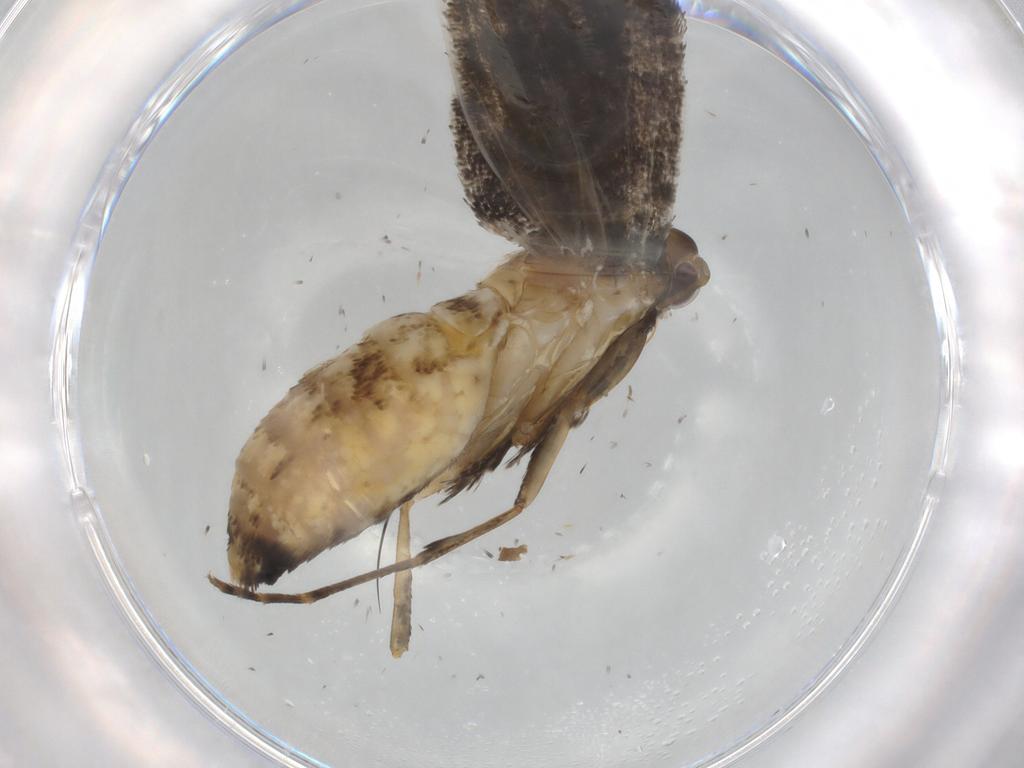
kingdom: Animalia
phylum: Arthropoda
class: Insecta
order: Lepidoptera
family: Epermeniidae
